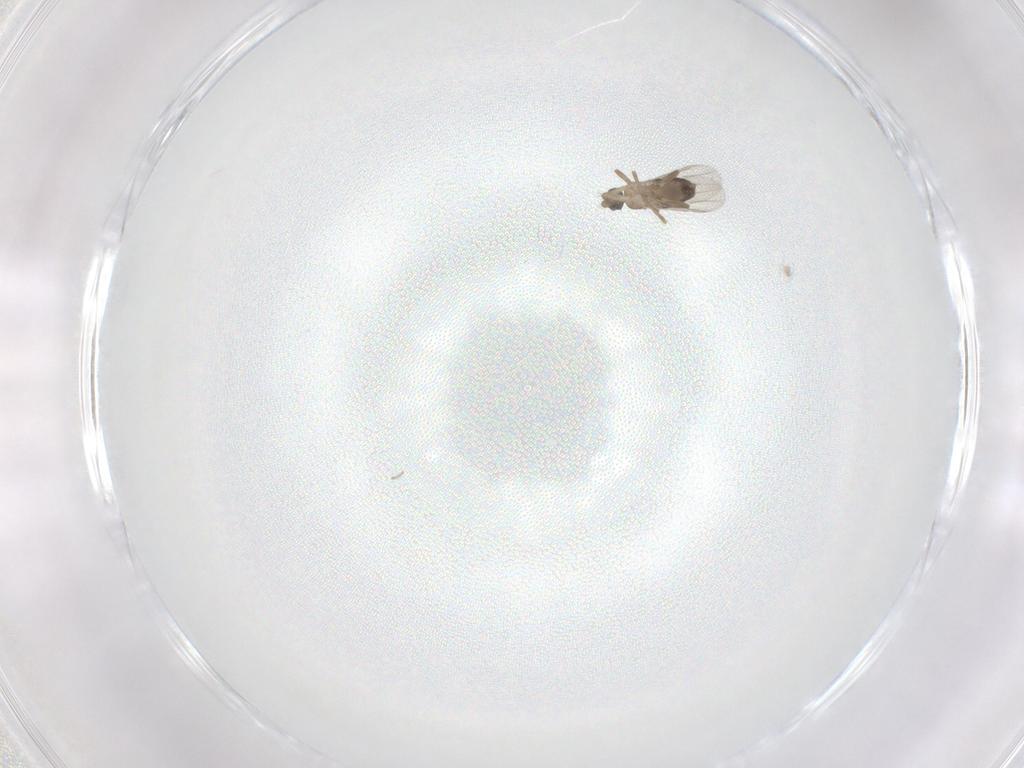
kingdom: Animalia
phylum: Arthropoda
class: Insecta
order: Diptera
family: Phoridae
